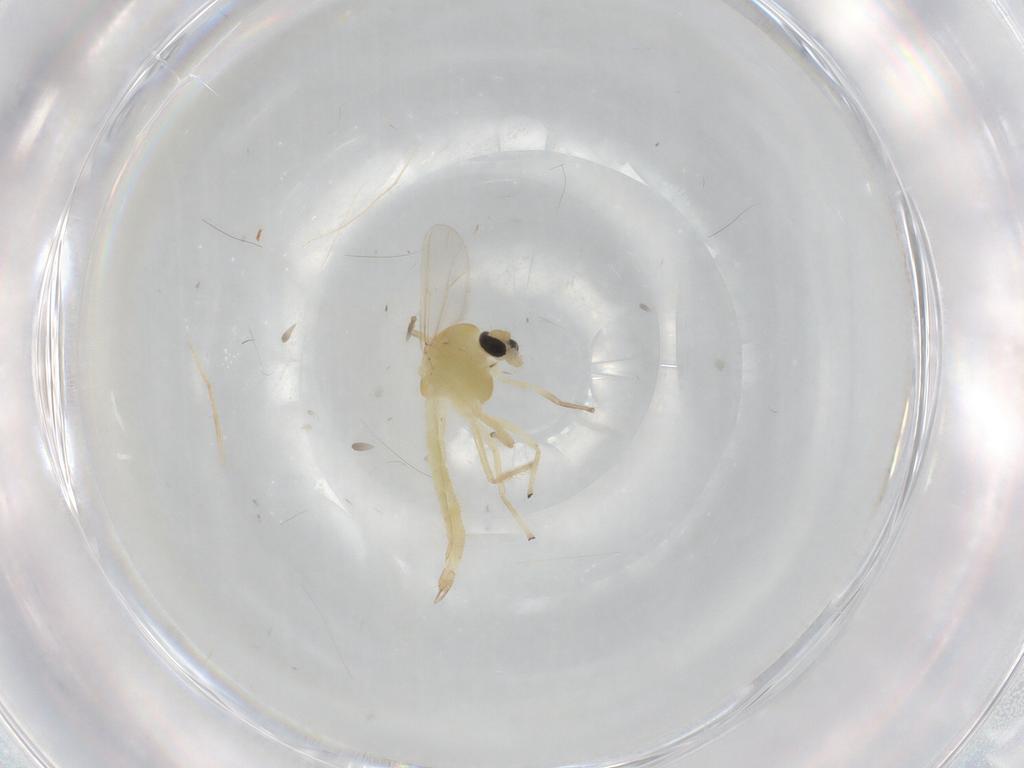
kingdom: Animalia
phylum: Arthropoda
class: Insecta
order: Diptera
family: Chironomidae
